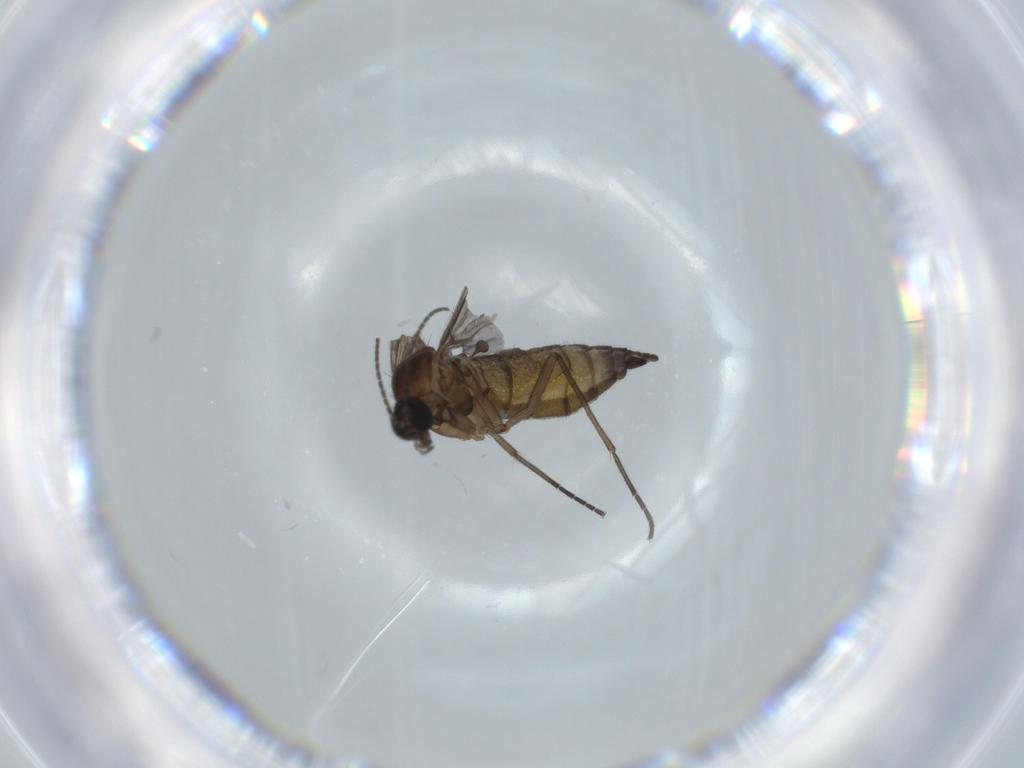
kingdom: Animalia
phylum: Arthropoda
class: Insecta
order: Diptera
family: Sciaridae
